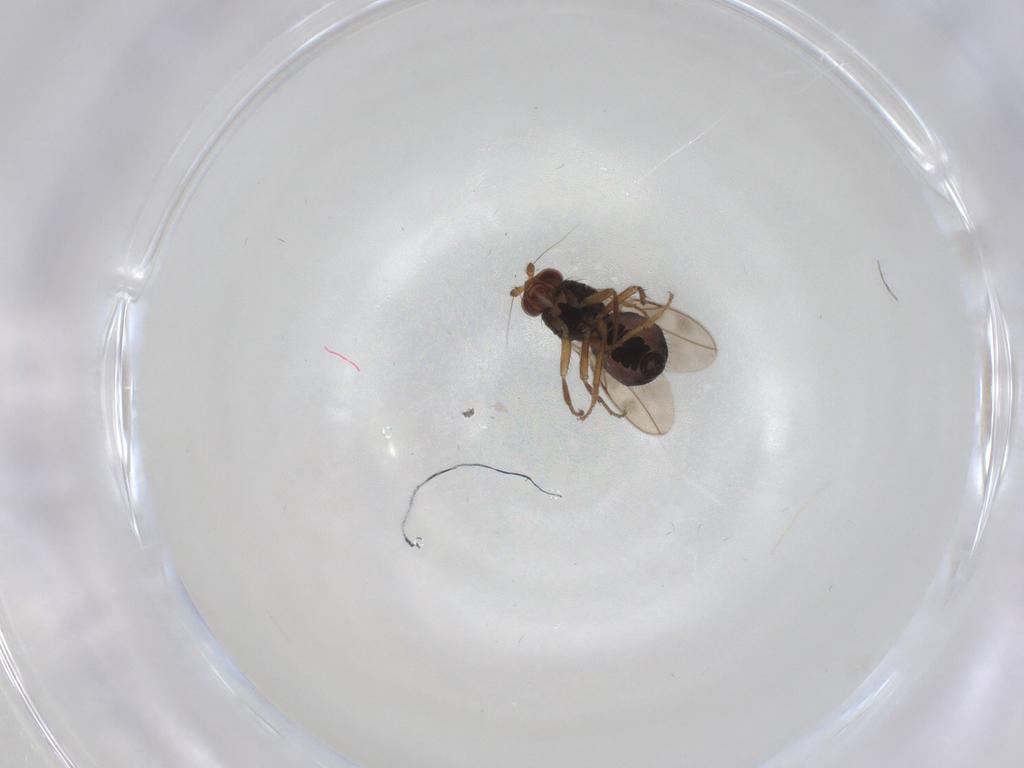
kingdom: Animalia
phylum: Arthropoda
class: Insecta
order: Diptera
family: Sphaeroceridae
